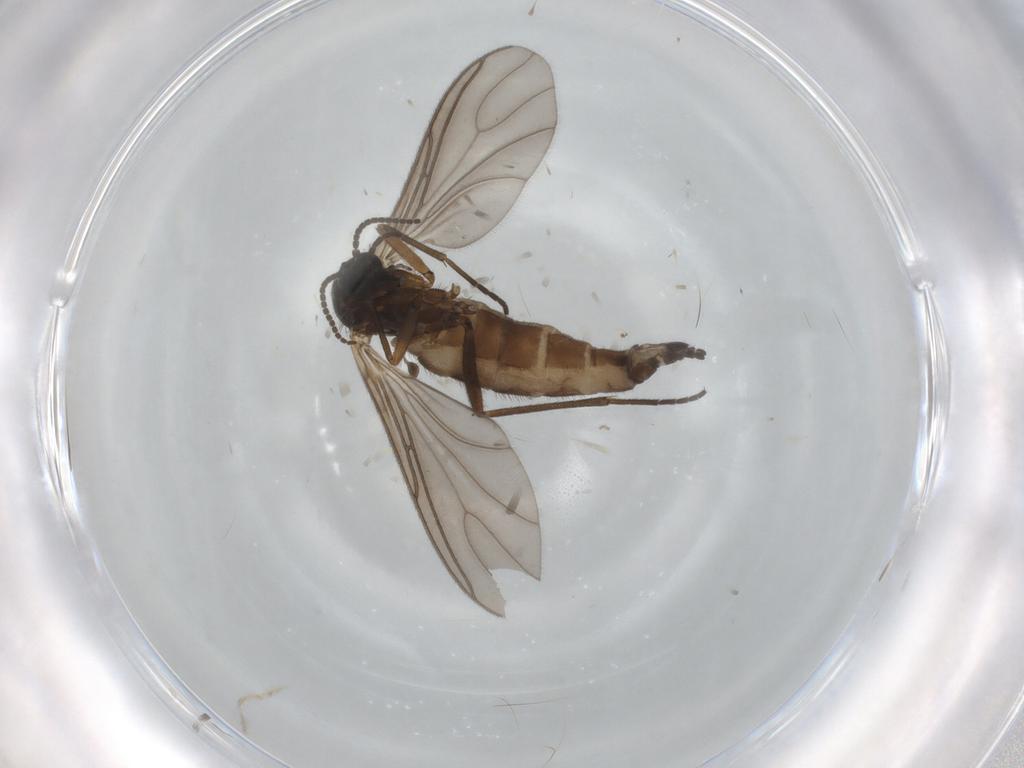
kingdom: Animalia
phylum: Arthropoda
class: Insecta
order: Diptera
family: Sciaridae
